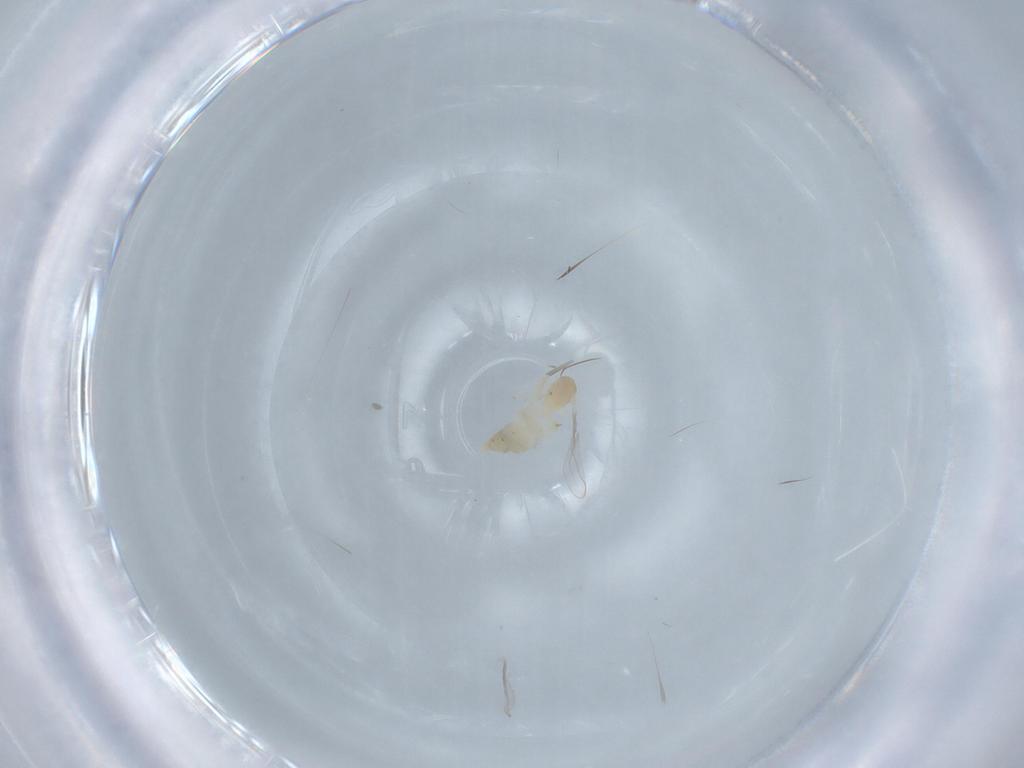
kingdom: Animalia
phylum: Arthropoda
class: Insecta
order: Diptera
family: Cecidomyiidae
